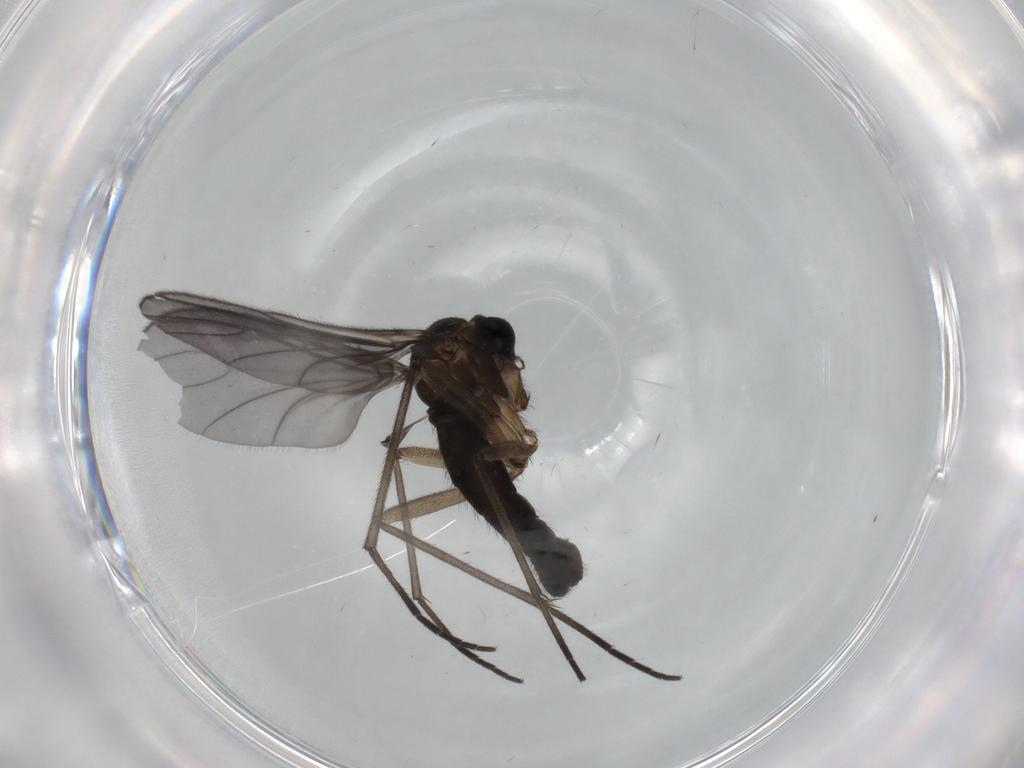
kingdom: Animalia
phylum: Arthropoda
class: Insecta
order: Diptera
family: Sciaridae
